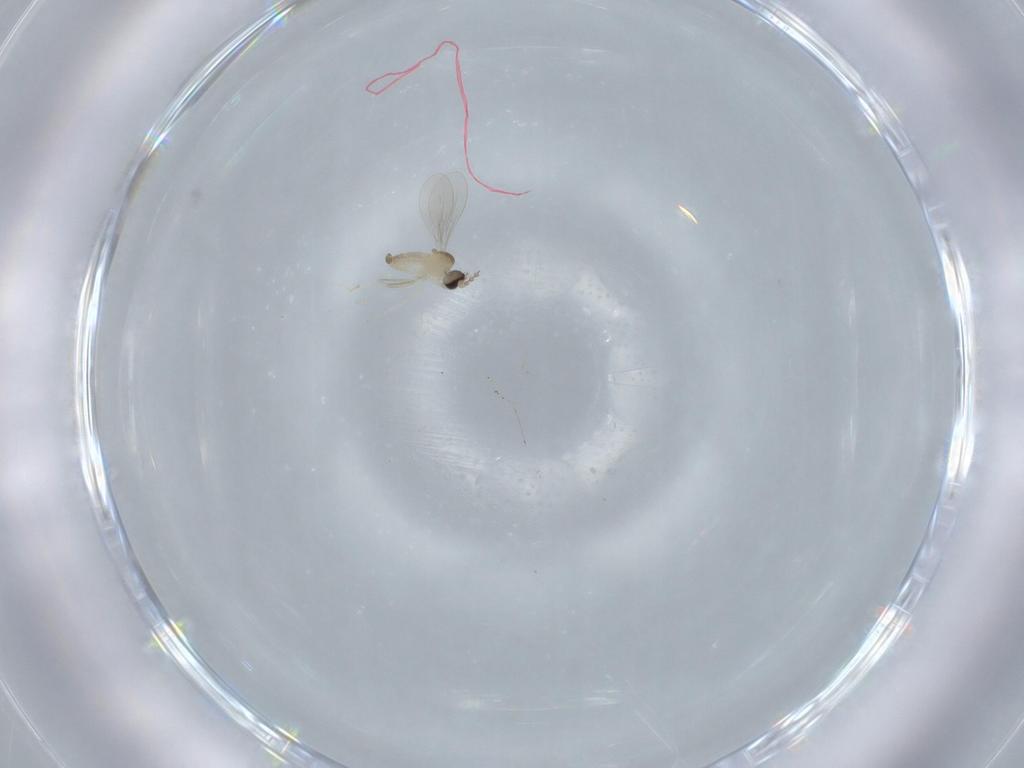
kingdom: Animalia
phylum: Arthropoda
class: Insecta
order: Diptera
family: Cecidomyiidae
